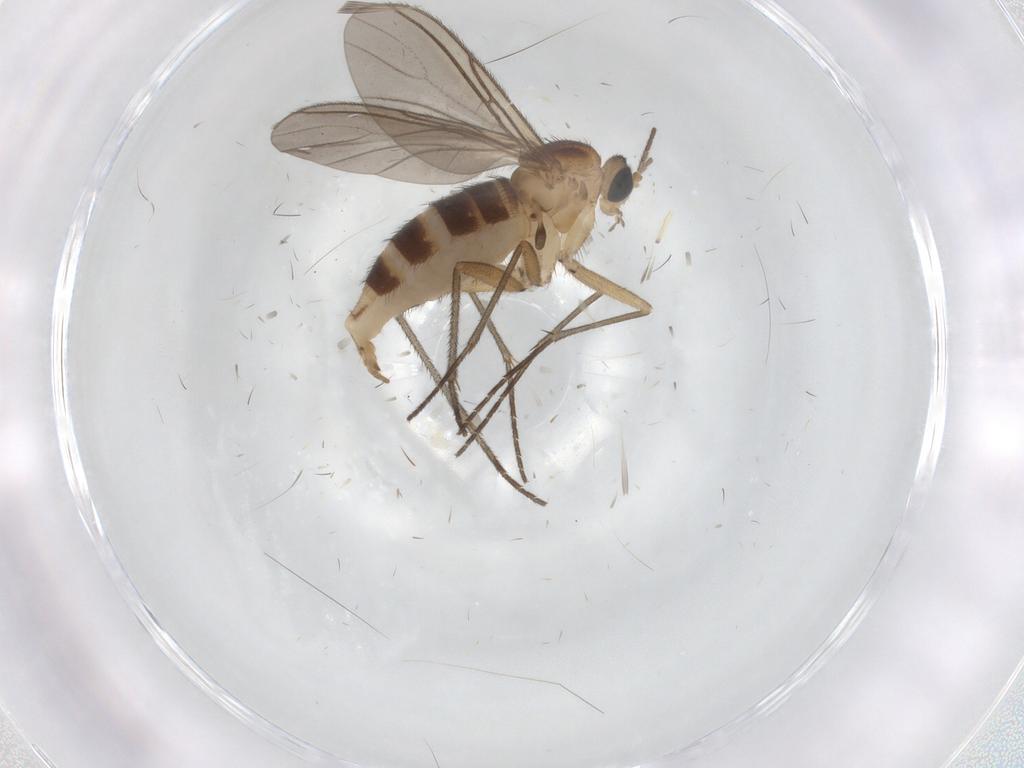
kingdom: Animalia
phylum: Arthropoda
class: Insecta
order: Diptera
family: Sciaridae
